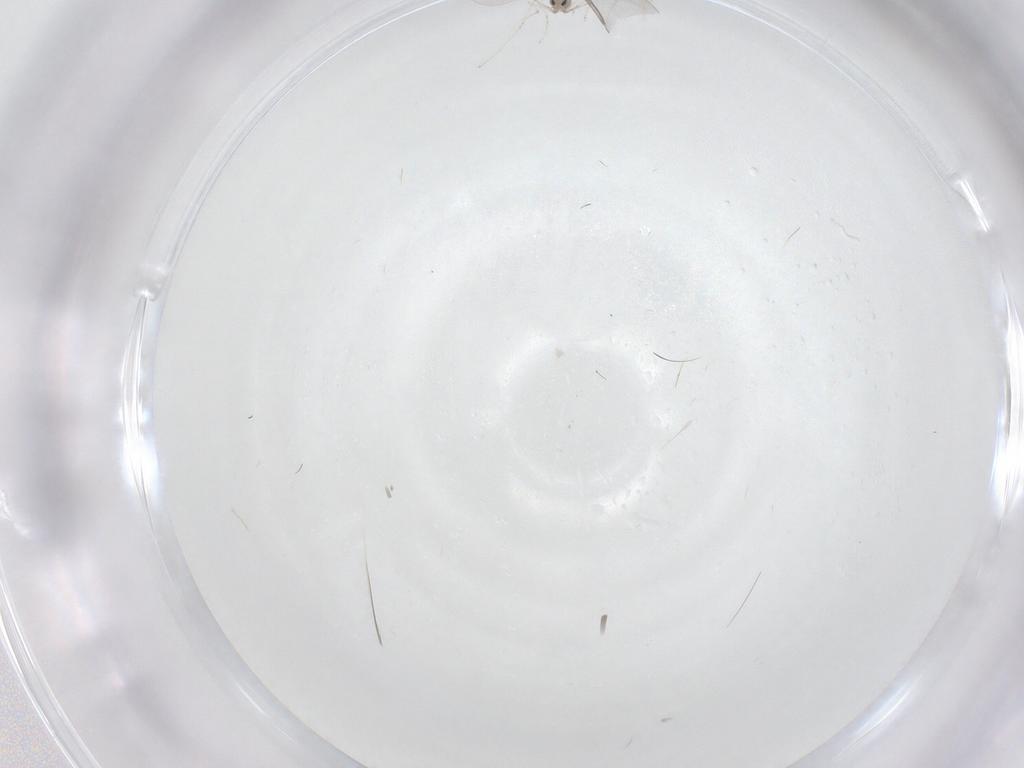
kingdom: Animalia
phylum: Arthropoda
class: Insecta
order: Diptera
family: Cecidomyiidae
